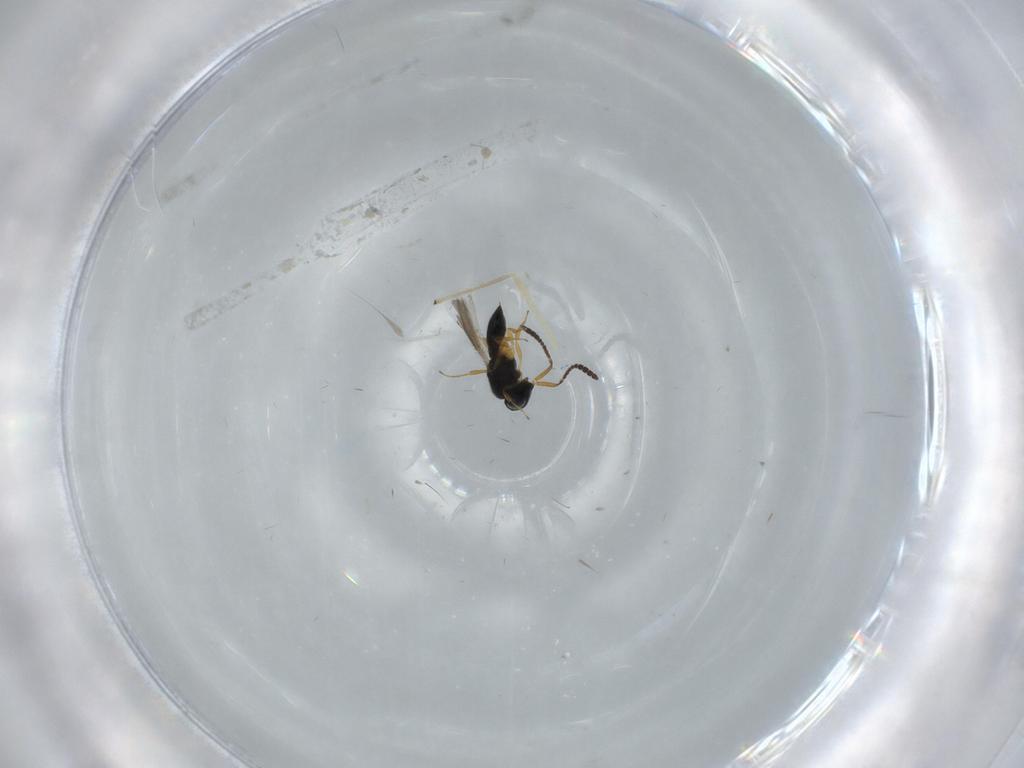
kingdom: Animalia
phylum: Arthropoda
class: Insecta
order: Hymenoptera
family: Scelionidae
